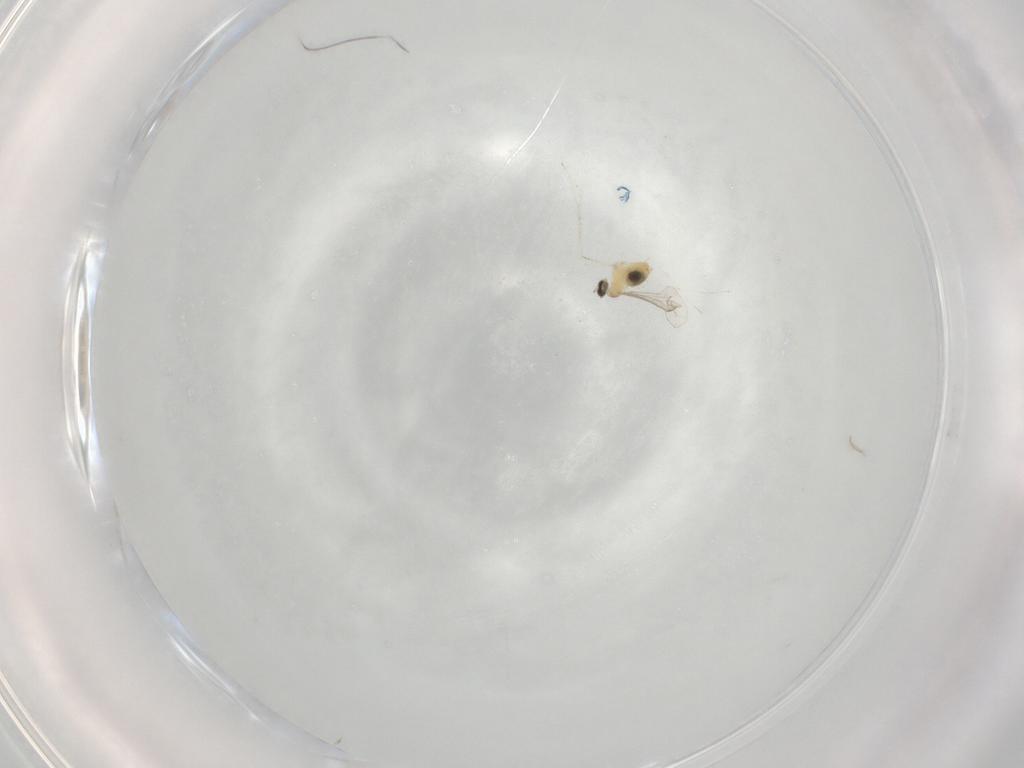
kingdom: Animalia
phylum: Arthropoda
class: Insecta
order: Diptera
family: Cecidomyiidae
